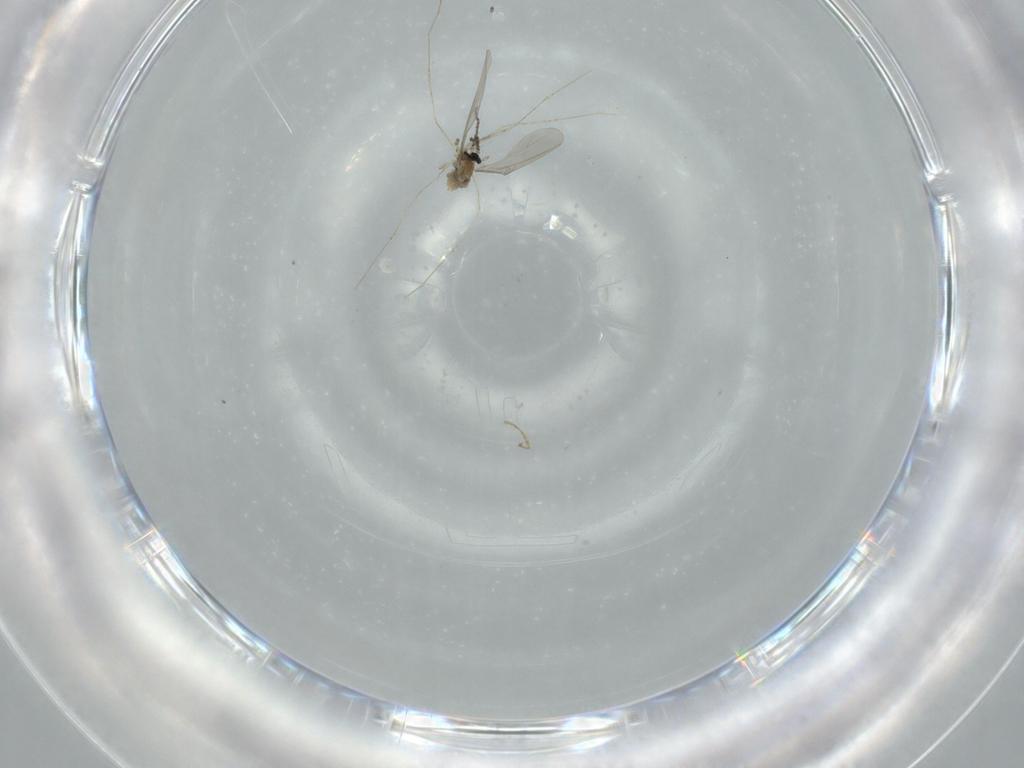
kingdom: Animalia
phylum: Arthropoda
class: Insecta
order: Diptera
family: Cecidomyiidae
